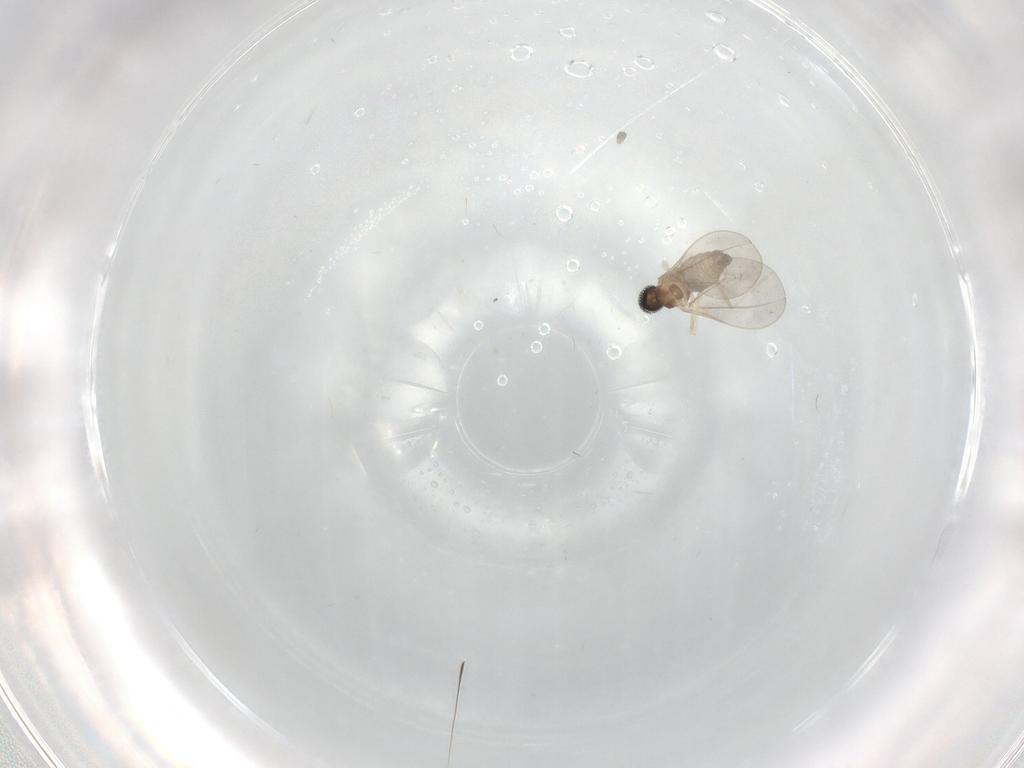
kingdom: Animalia
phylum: Arthropoda
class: Insecta
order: Diptera
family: Cecidomyiidae
